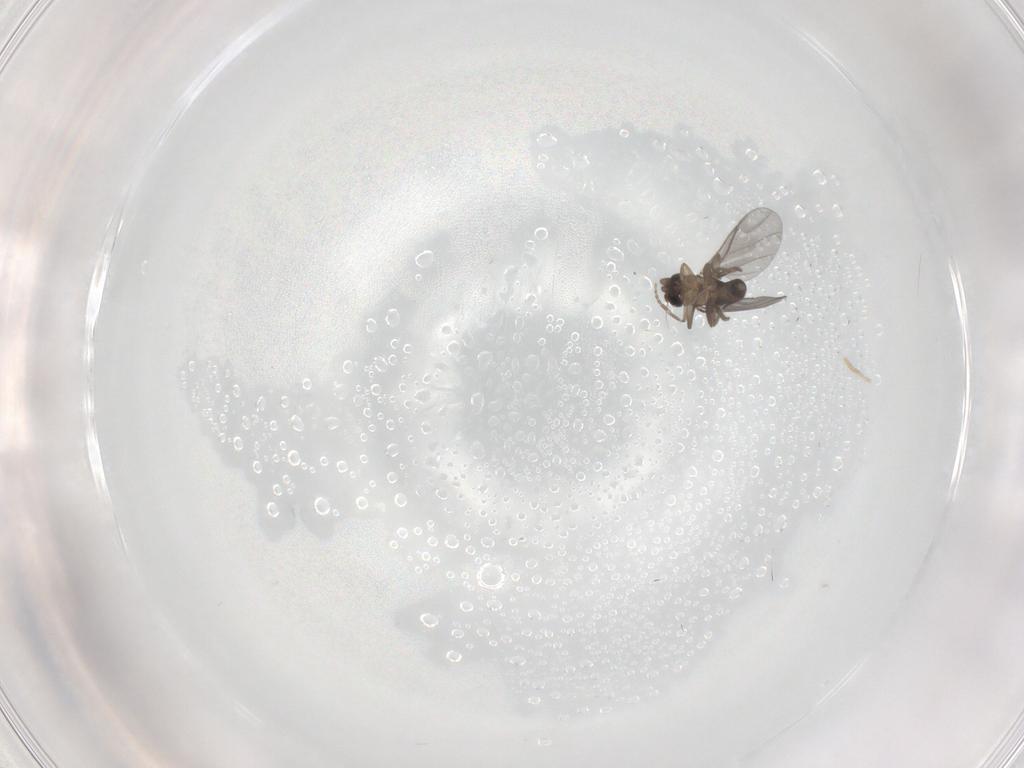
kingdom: Animalia
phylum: Arthropoda
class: Insecta
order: Diptera
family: Phoridae
